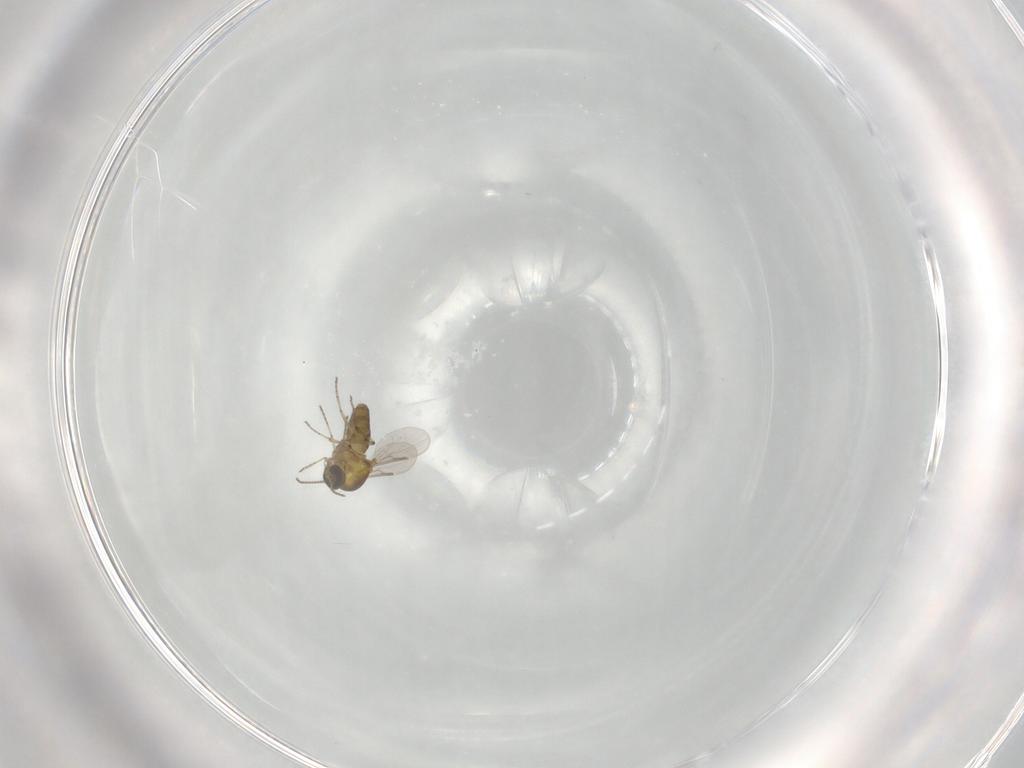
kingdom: Animalia
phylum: Arthropoda
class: Insecta
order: Diptera
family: Ceratopogonidae
